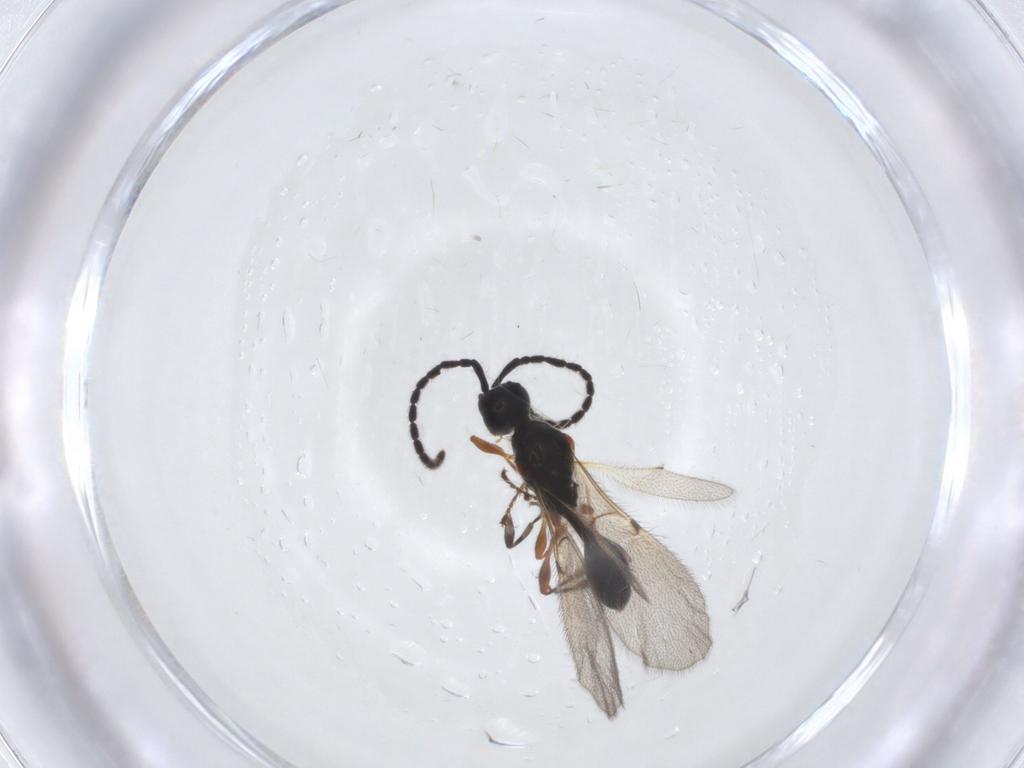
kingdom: Animalia
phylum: Arthropoda
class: Insecta
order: Hymenoptera
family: Diapriidae
